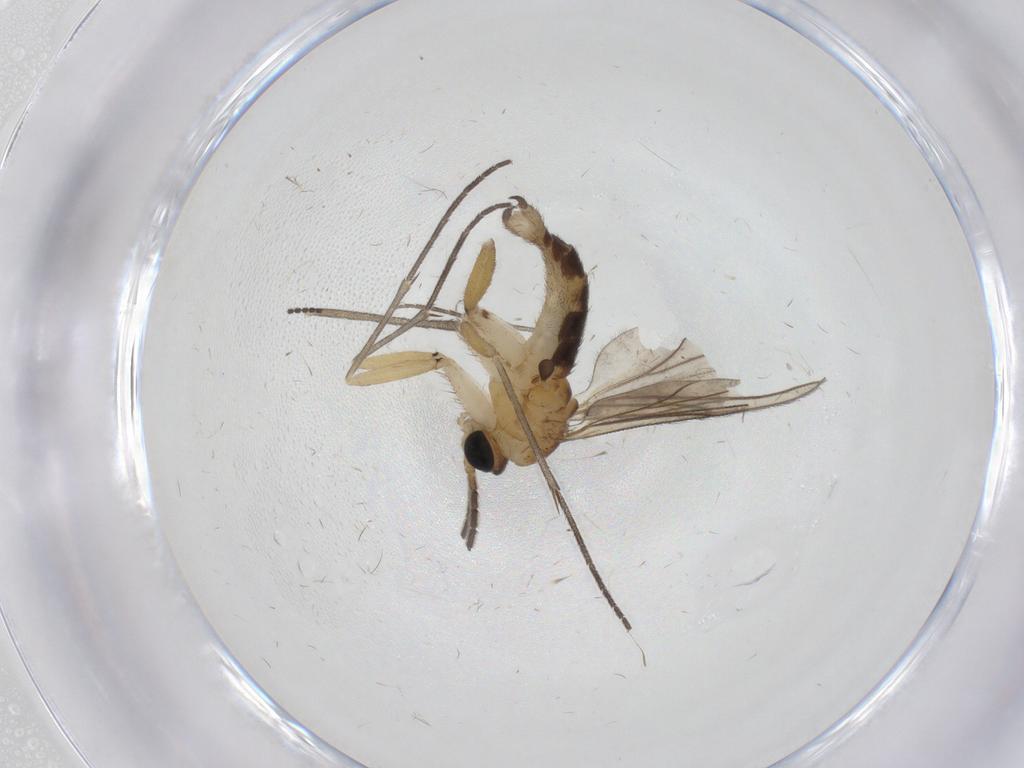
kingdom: Animalia
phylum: Arthropoda
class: Insecta
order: Diptera
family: Sciaridae
